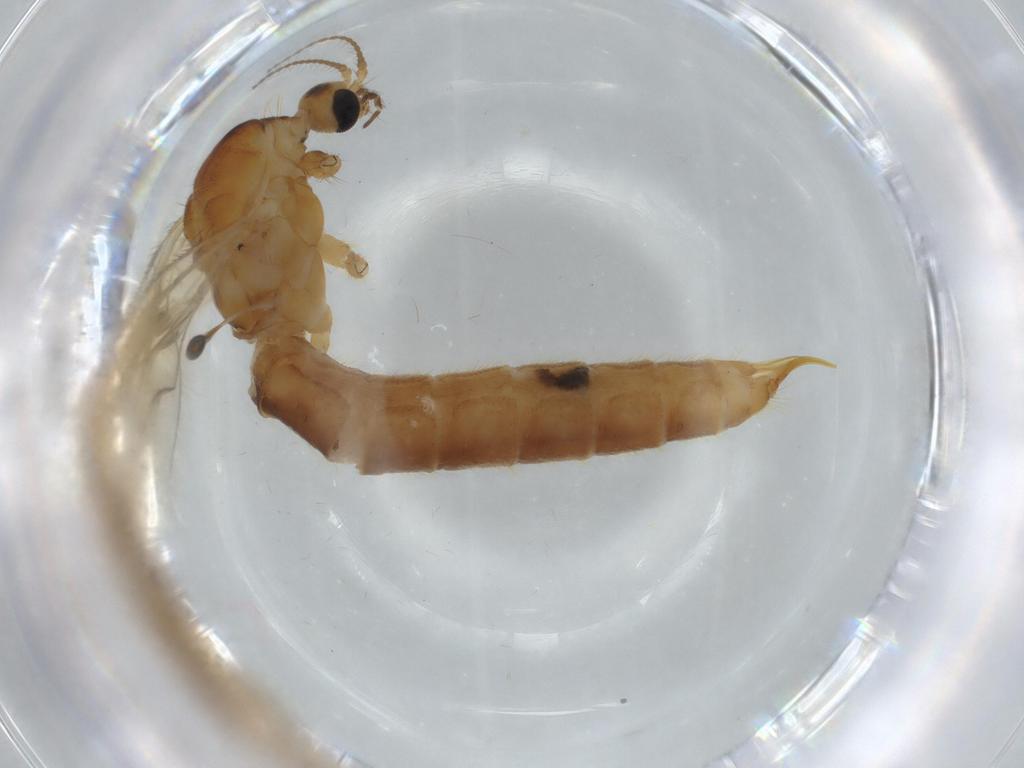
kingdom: Animalia
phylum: Arthropoda
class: Insecta
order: Diptera
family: Limoniidae
